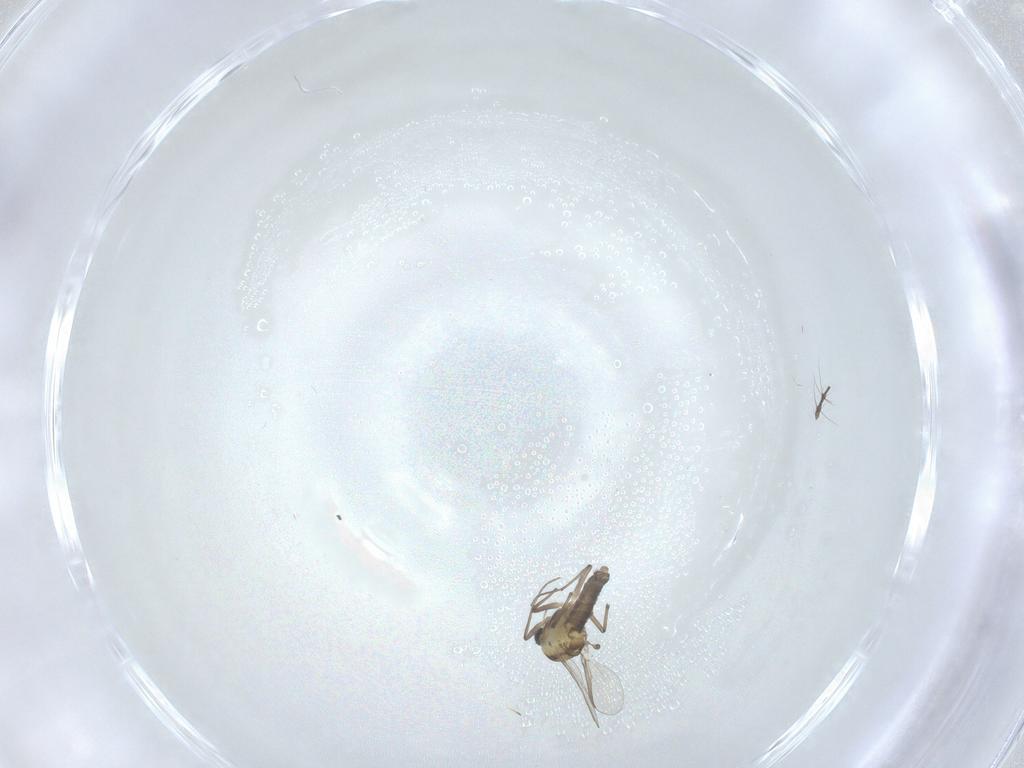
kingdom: Animalia
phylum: Arthropoda
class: Insecta
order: Diptera
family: Chironomidae
